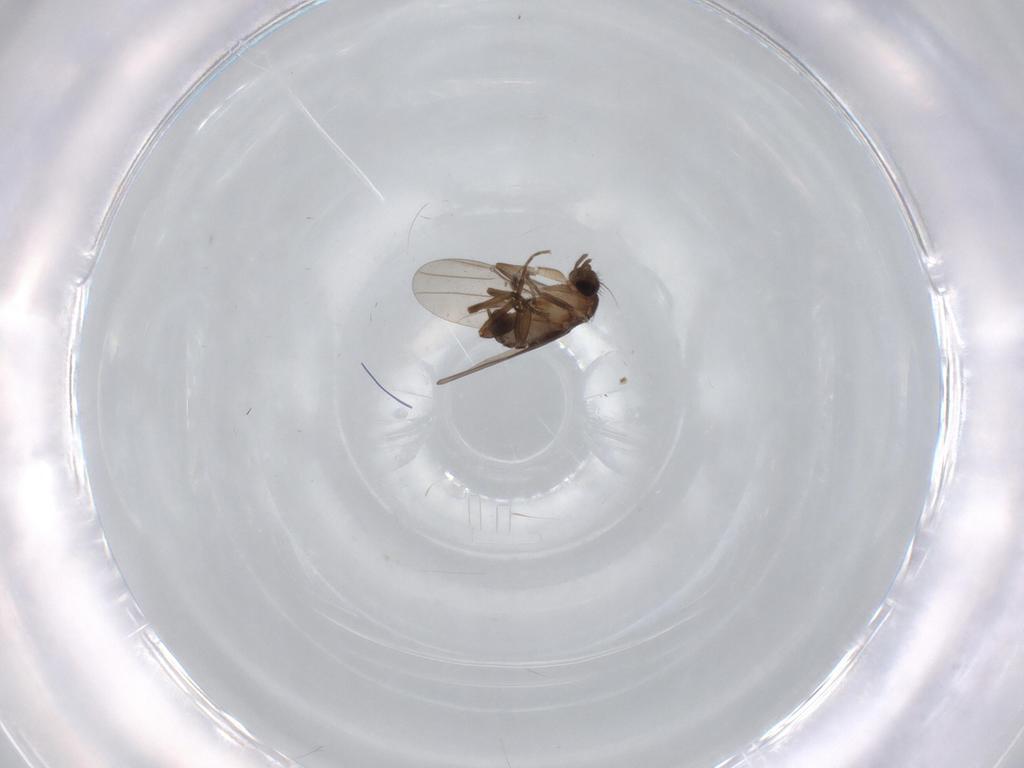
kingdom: Animalia
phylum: Arthropoda
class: Insecta
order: Diptera
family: Sciaridae
